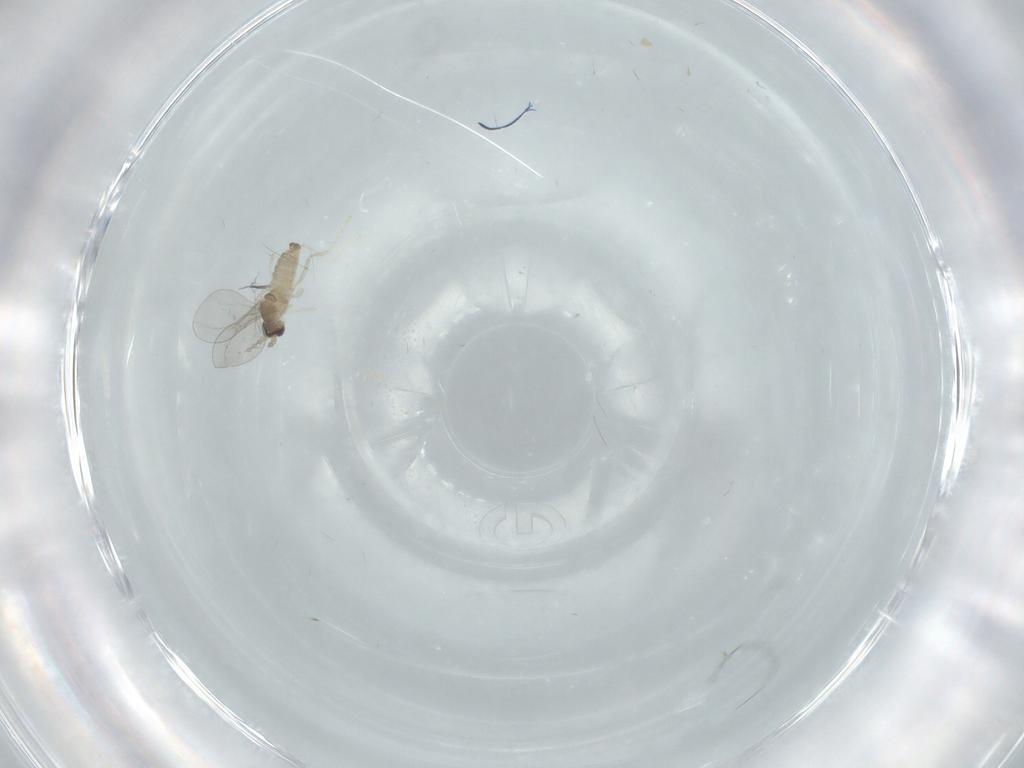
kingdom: Animalia
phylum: Arthropoda
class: Insecta
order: Diptera
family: Cecidomyiidae
